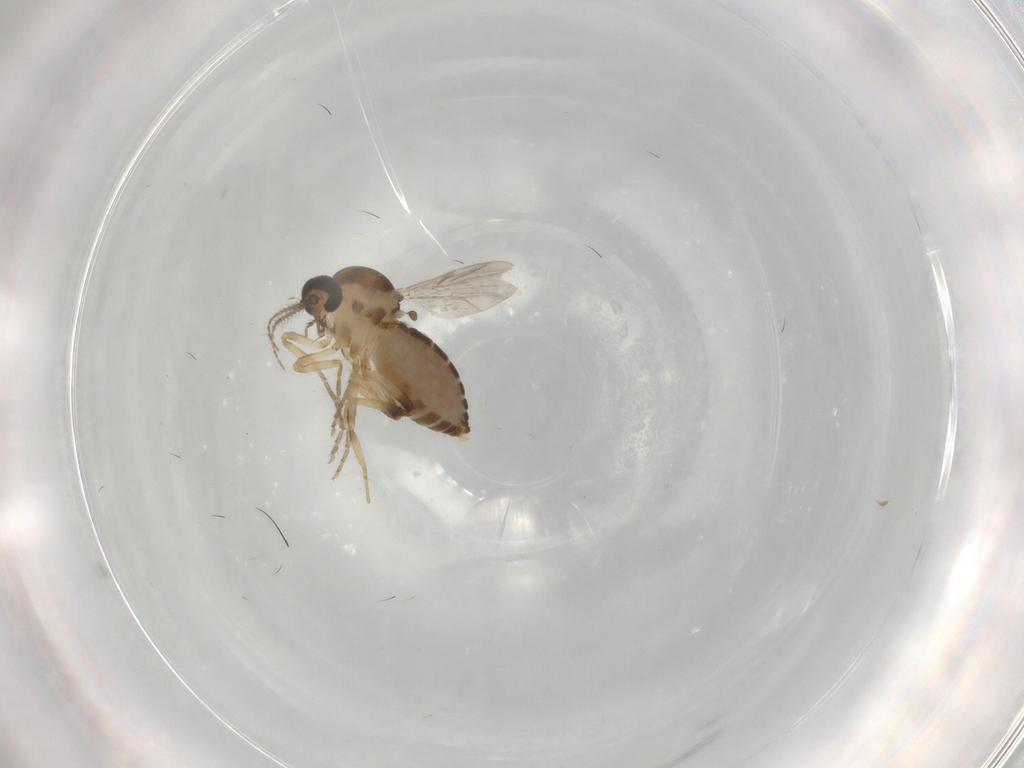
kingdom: Animalia
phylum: Arthropoda
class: Insecta
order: Diptera
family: Ceratopogonidae
